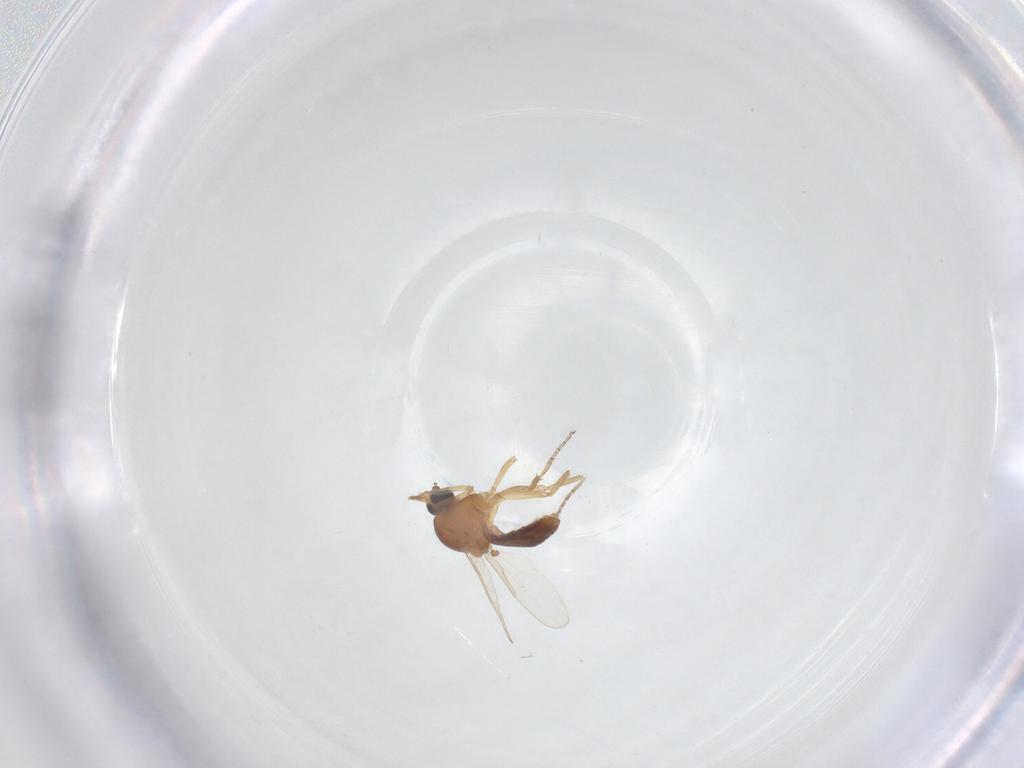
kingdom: Animalia
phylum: Arthropoda
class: Insecta
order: Diptera
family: Ceratopogonidae
